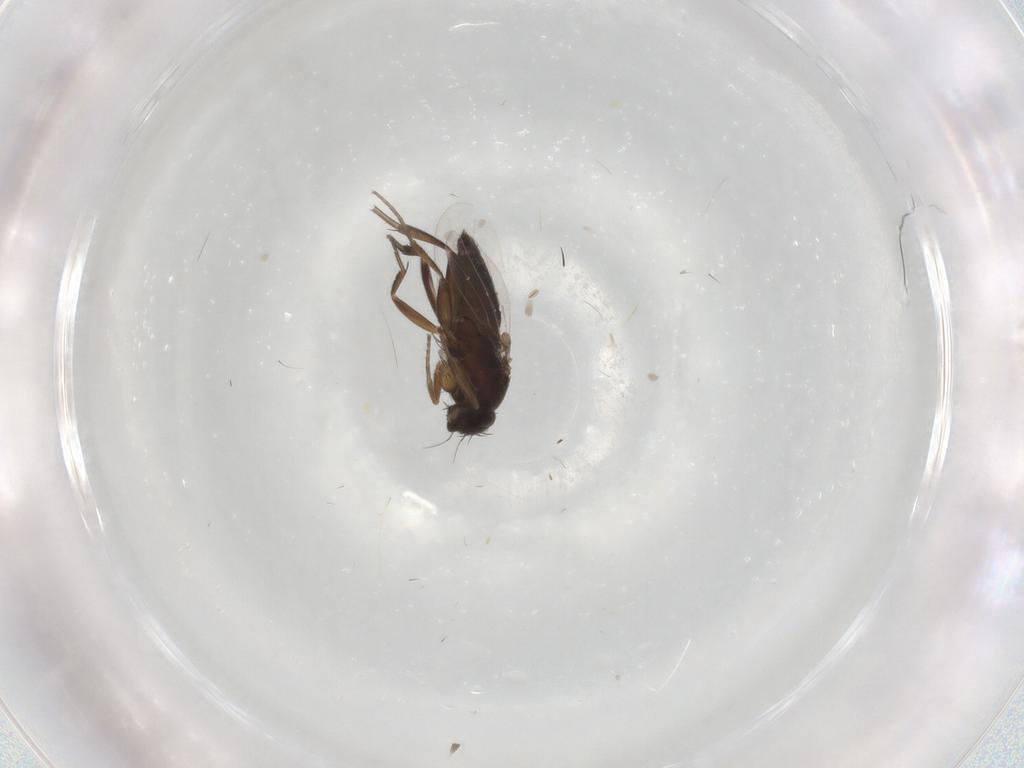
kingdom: Animalia
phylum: Arthropoda
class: Insecta
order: Diptera
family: Phoridae
